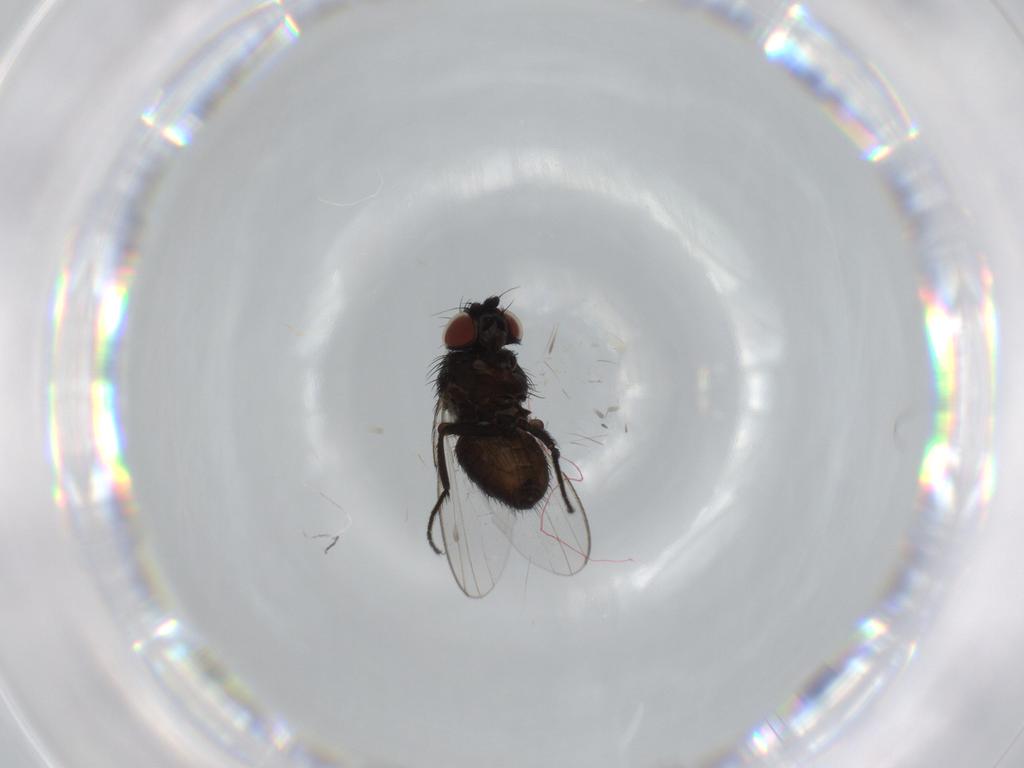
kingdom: Animalia
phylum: Arthropoda
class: Insecta
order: Diptera
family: Milichiidae
